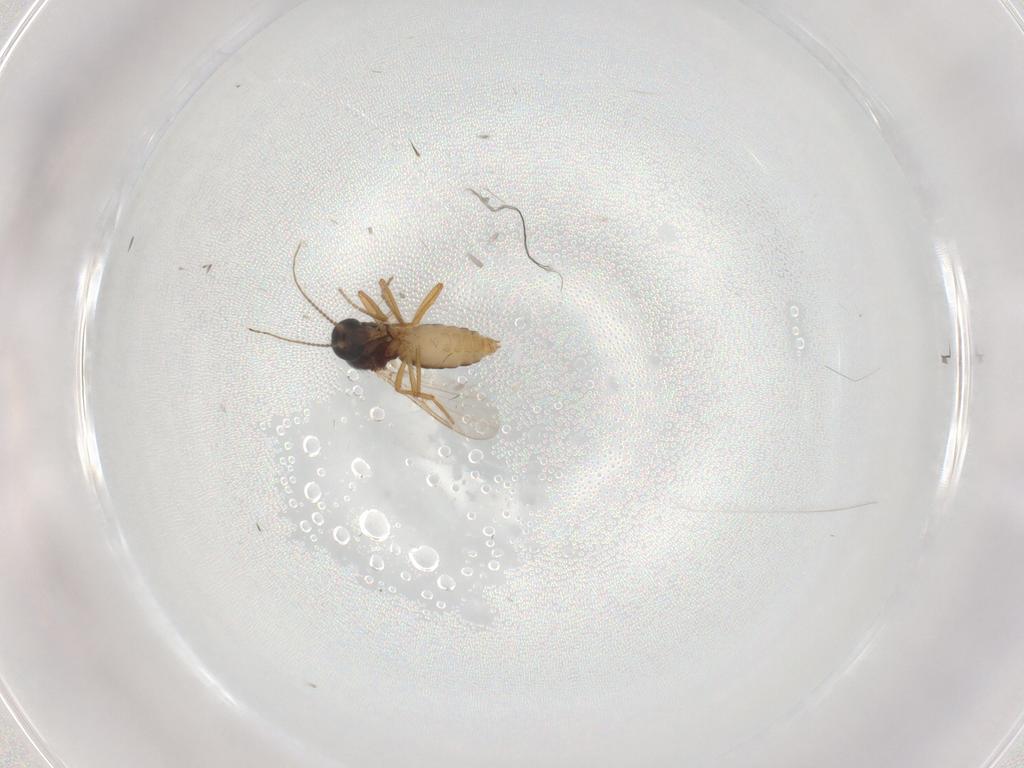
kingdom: Animalia
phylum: Arthropoda
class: Insecta
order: Diptera
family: Ceratopogonidae
